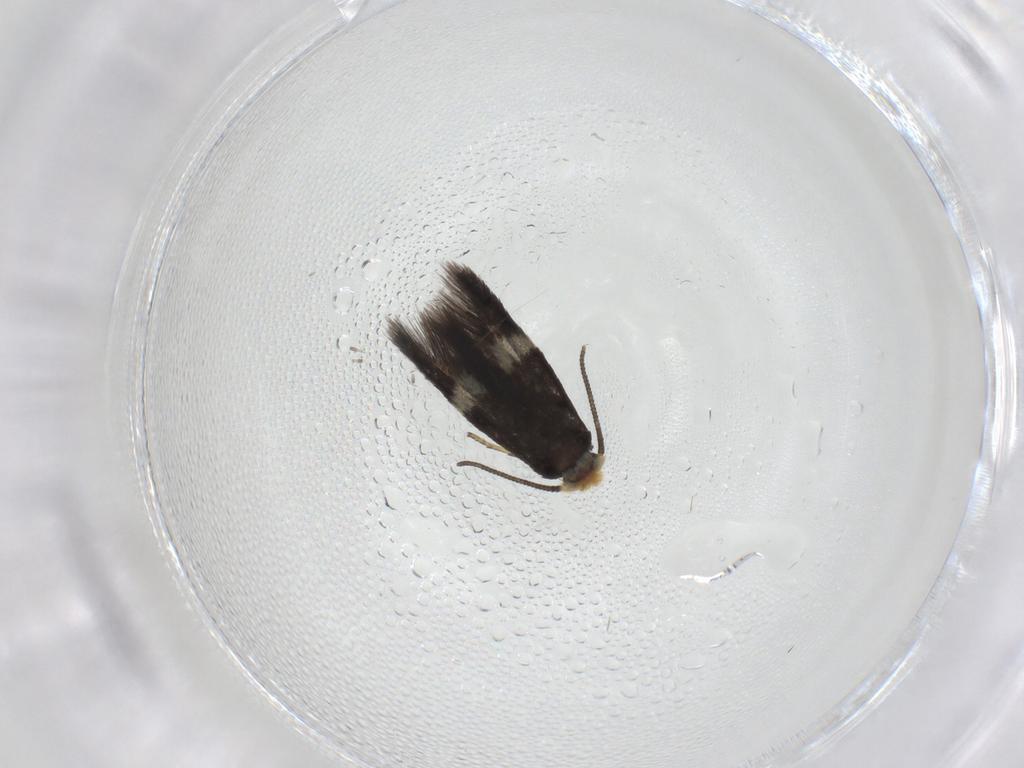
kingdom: Animalia
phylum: Arthropoda
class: Insecta
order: Lepidoptera
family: Nepticulidae
